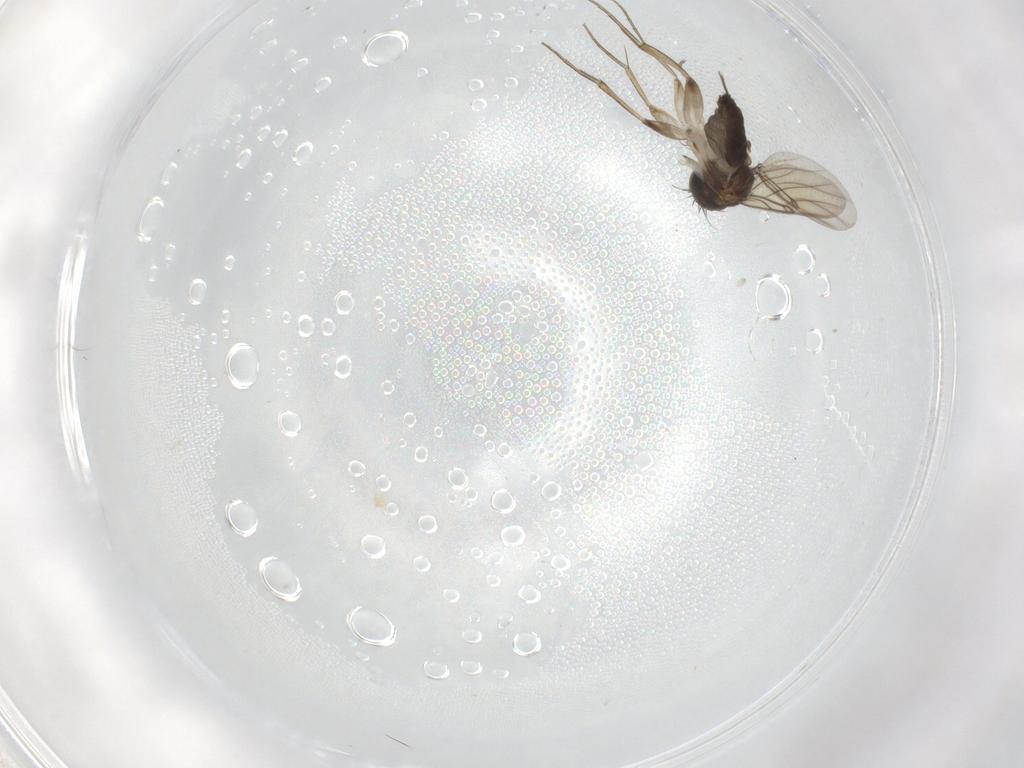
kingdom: Animalia
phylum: Arthropoda
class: Insecta
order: Diptera
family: Phoridae
